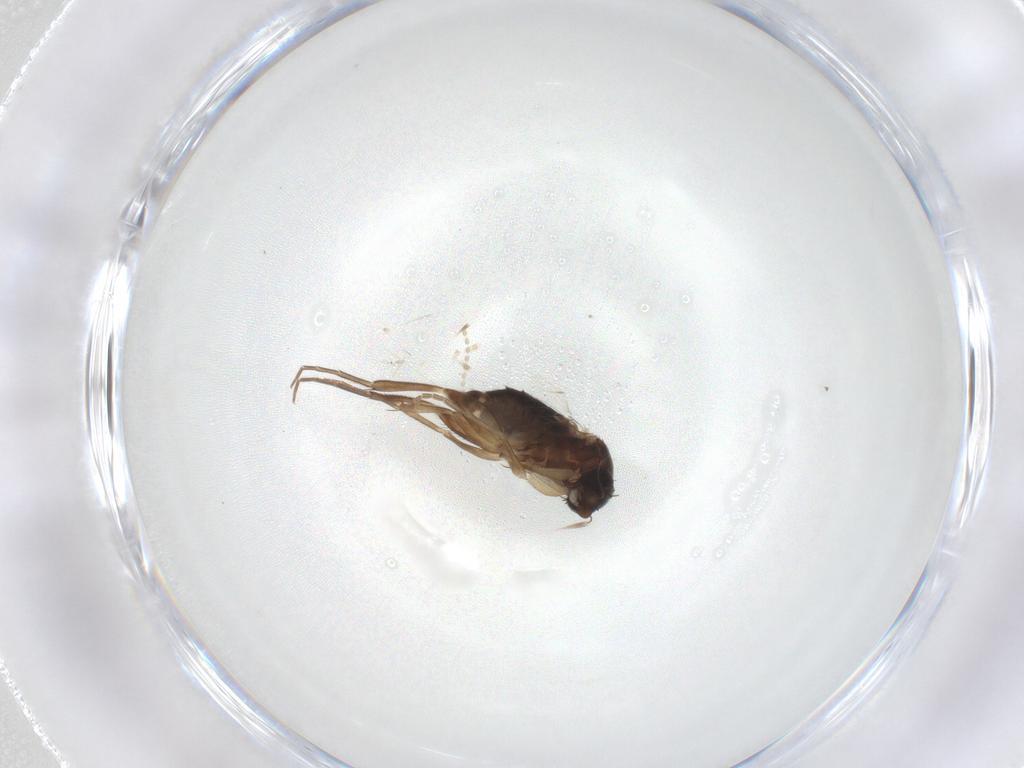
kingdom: Animalia
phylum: Arthropoda
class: Insecta
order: Diptera
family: Phoridae
